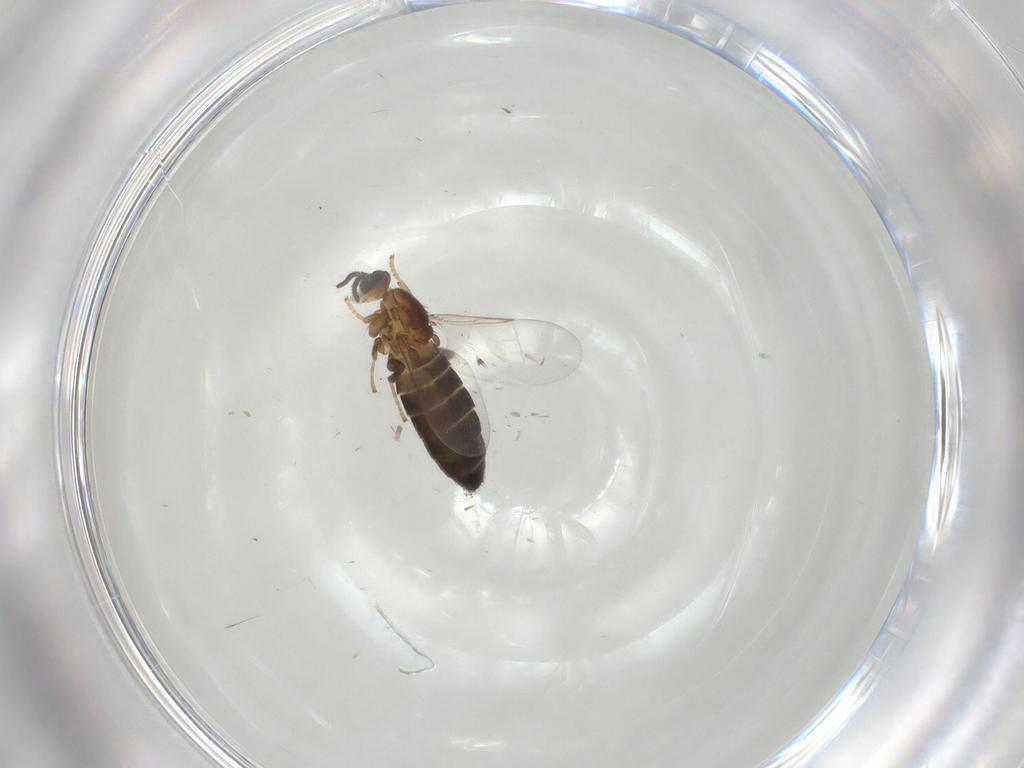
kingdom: Animalia
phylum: Arthropoda
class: Insecta
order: Diptera
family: Scatopsidae
